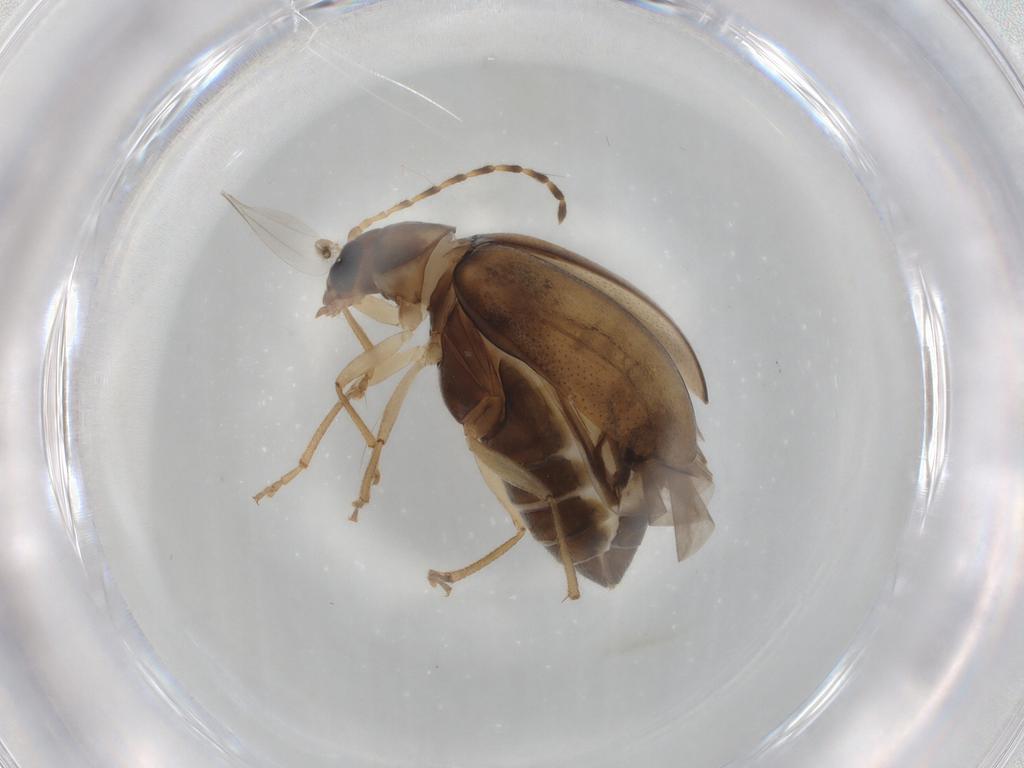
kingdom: Animalia
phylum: Arthropoda
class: Insecta
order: Coleoptera
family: Chrysomelidae
